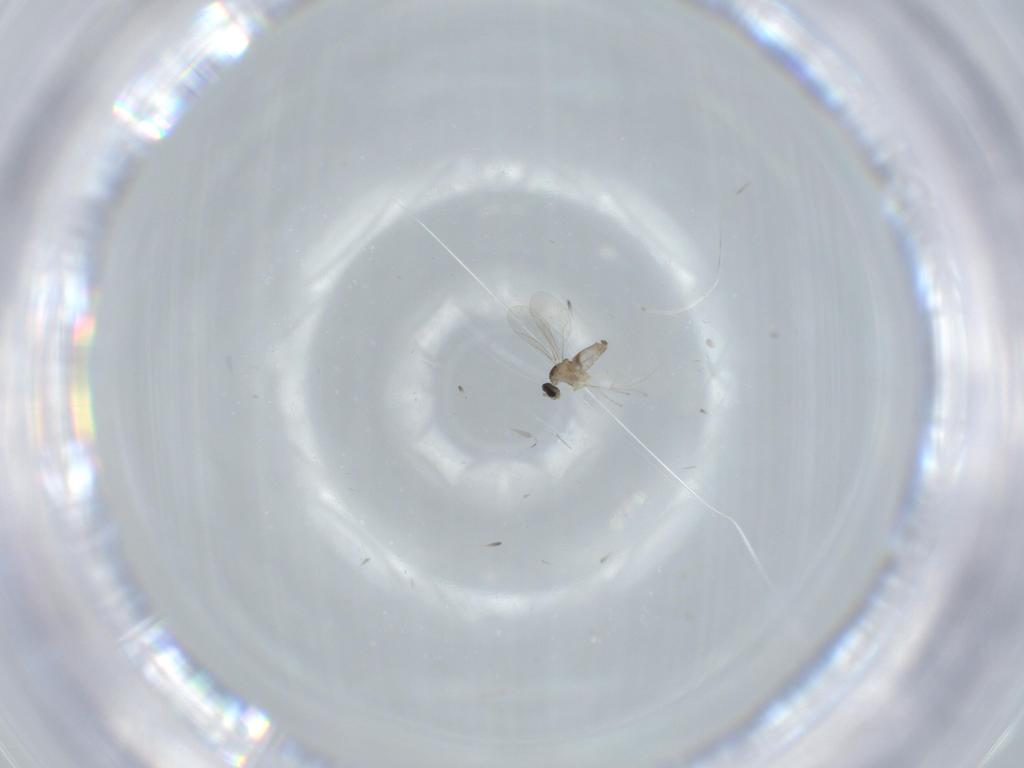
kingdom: Animalia
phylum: Arthropoda
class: Insecta
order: Diptera
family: Cecidomyiidae
